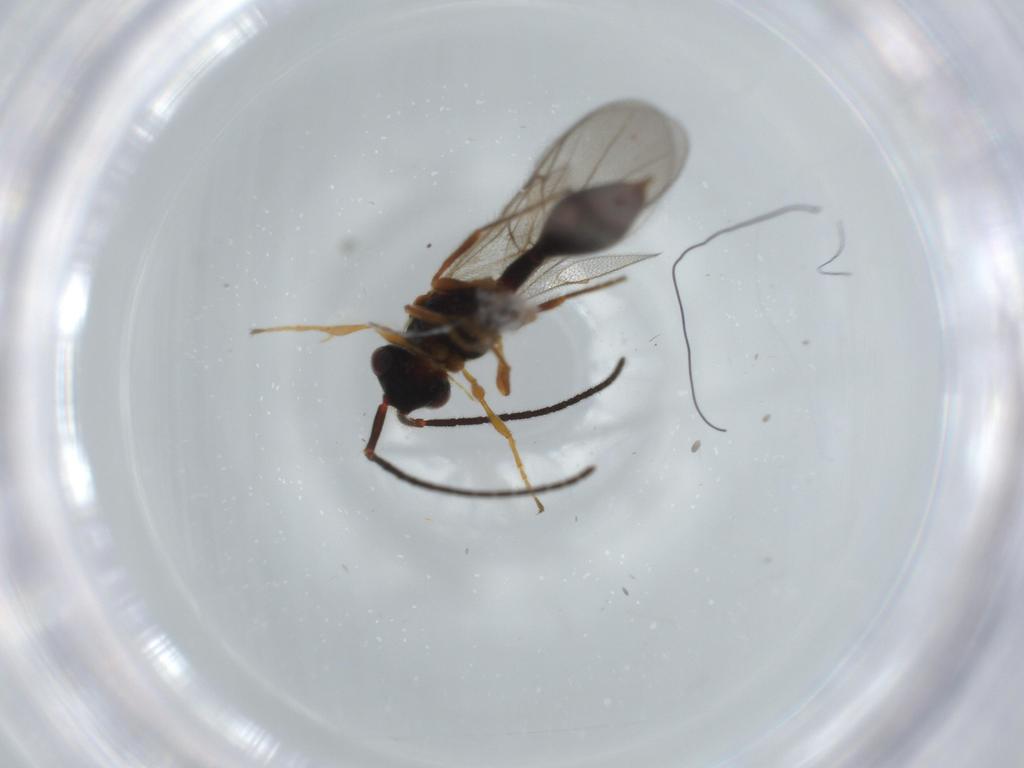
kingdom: Animalia
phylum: Arthropoda
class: Insecta
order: Hymenoptera
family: Diapriidae
